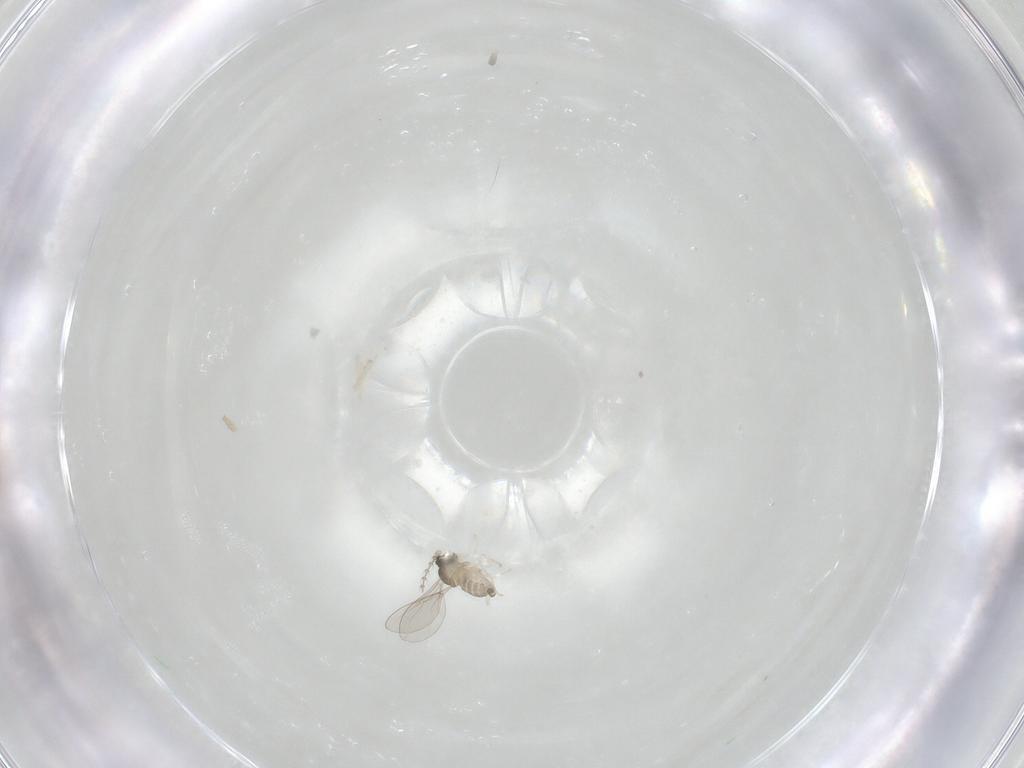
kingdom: Animalia
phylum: Arthropoda
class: Insecta
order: Diptera
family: Cecidomyiidae
